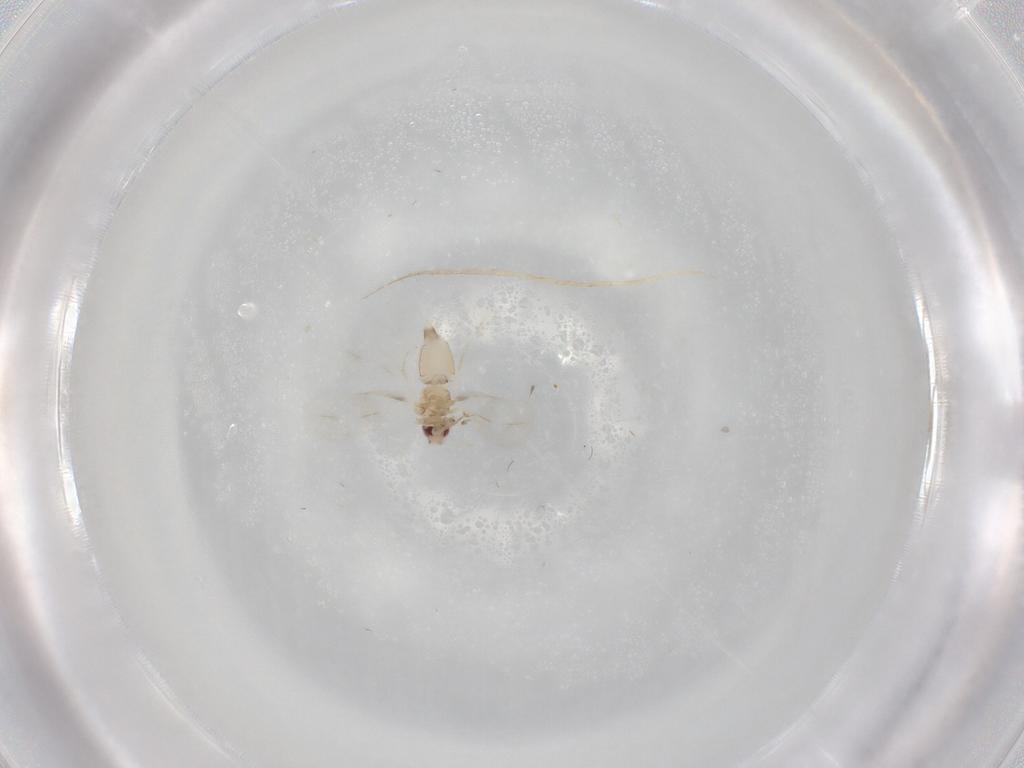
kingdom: Animalia
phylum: Arthropoda
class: Insecta
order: Hemiptera
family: Aleyrodidae
